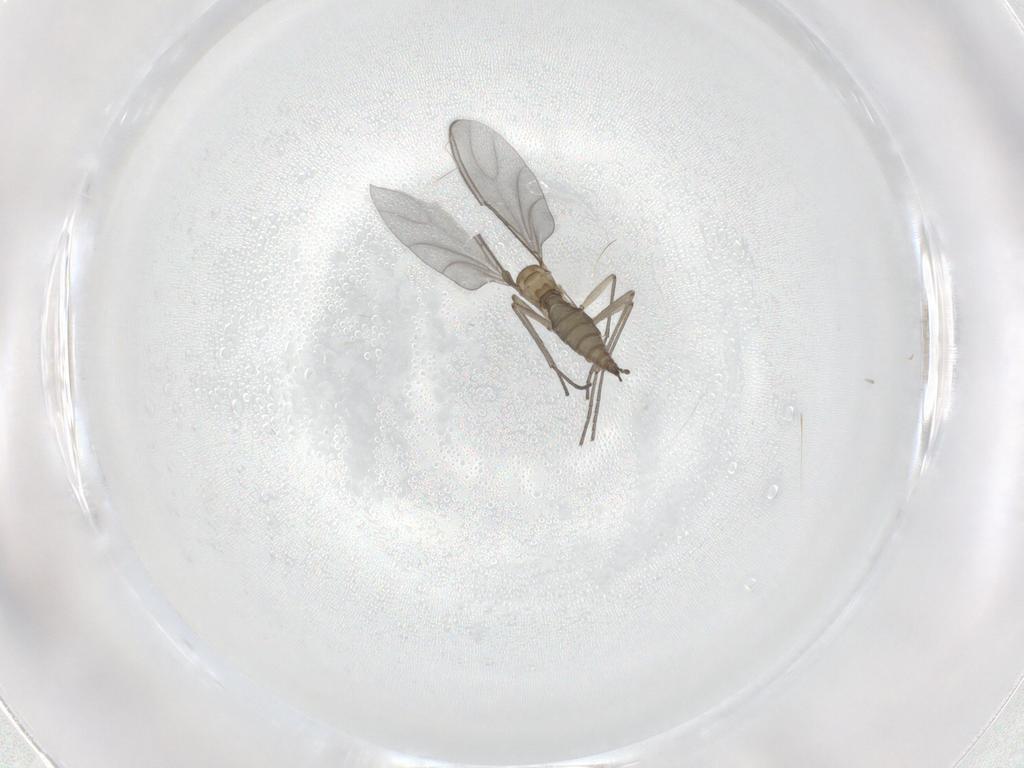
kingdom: Animalia
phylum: Arthropoda
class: Insecta
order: Diptera
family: Sciaridae
